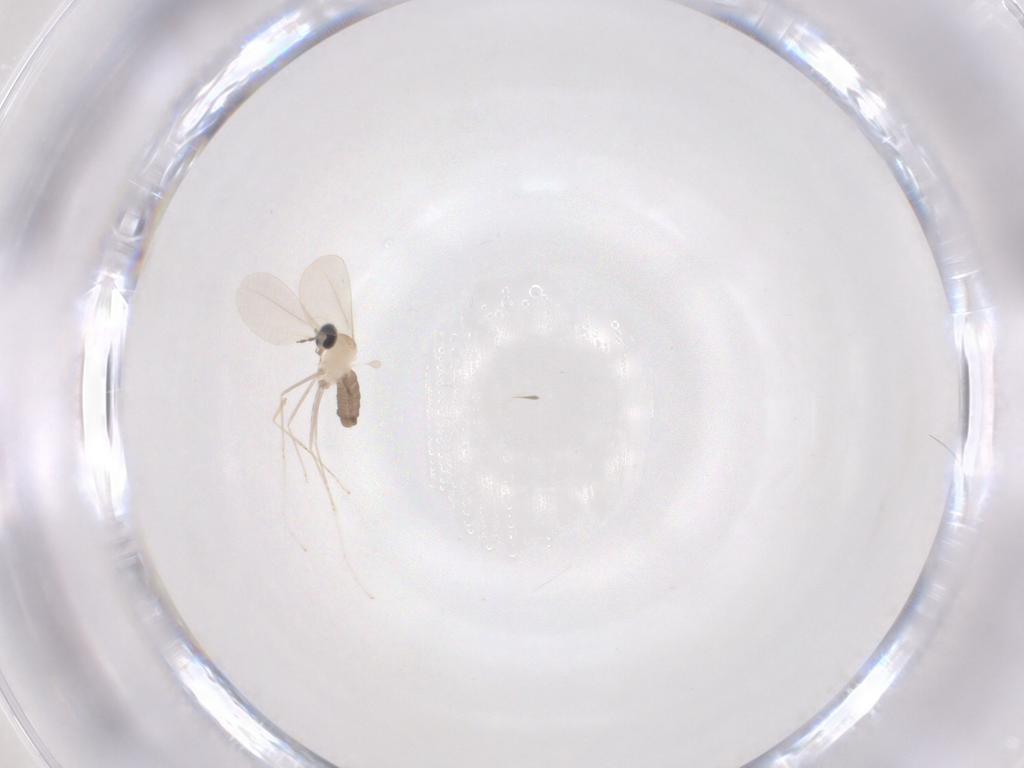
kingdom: Animalia
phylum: Arthropoda
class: Insecta
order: Diptera
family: Cecidomyiidae
